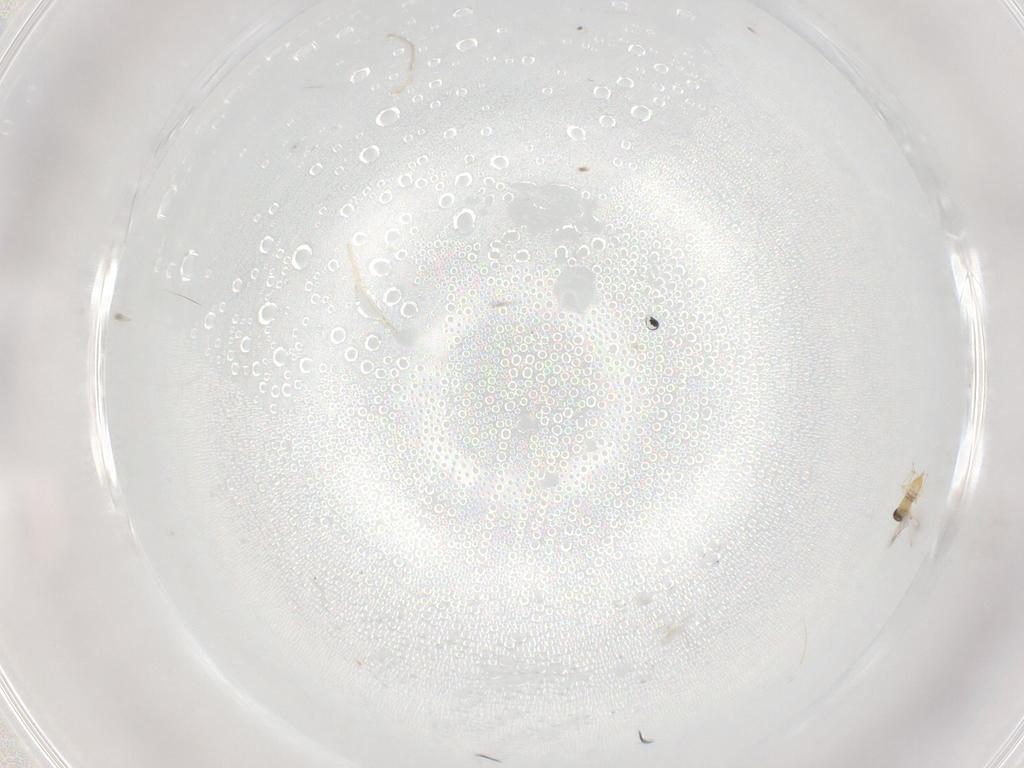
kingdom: Animalia
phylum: Arthropoda
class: Insecta
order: Hymenoptera
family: Mymaridae
